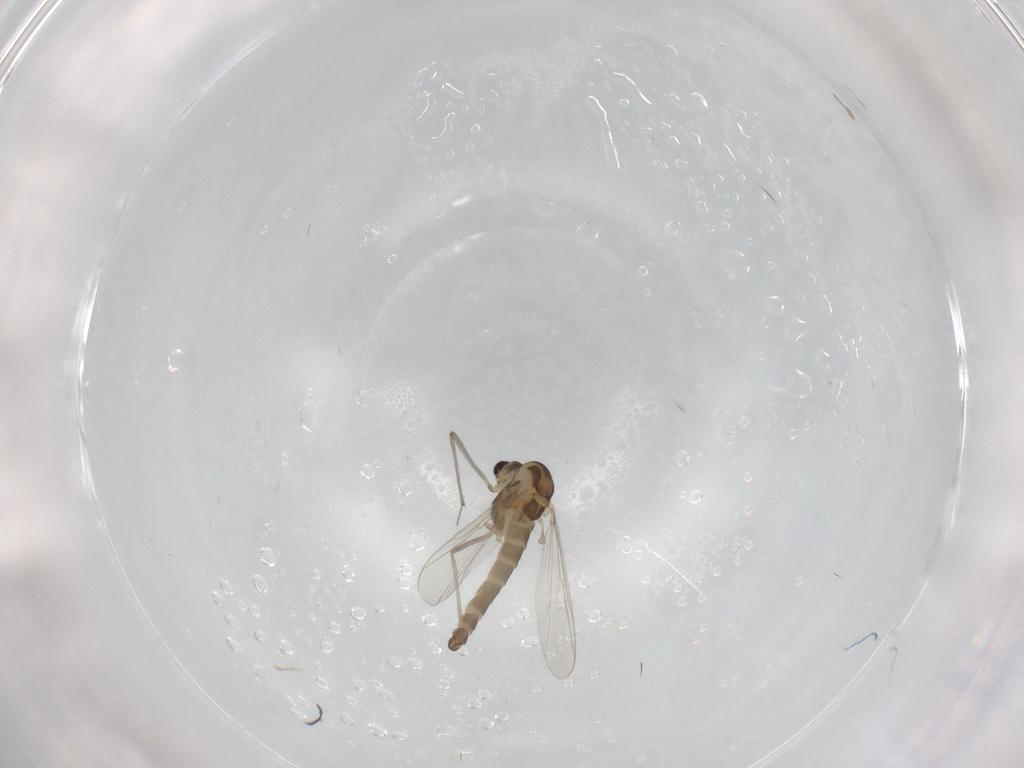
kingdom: Animalia
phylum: Arthropoda
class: Insecta
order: Diptera
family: Chironomidae
